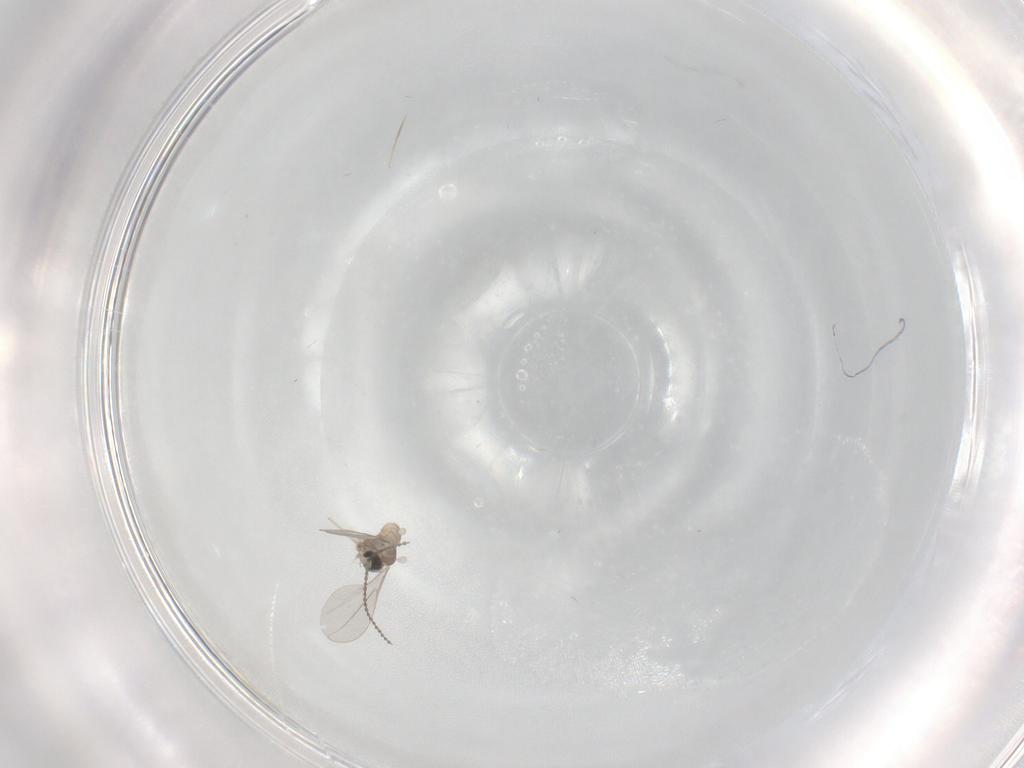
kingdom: Animalia
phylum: Arthropoda
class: Insecta
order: Diptera
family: Cecidomyiidae
